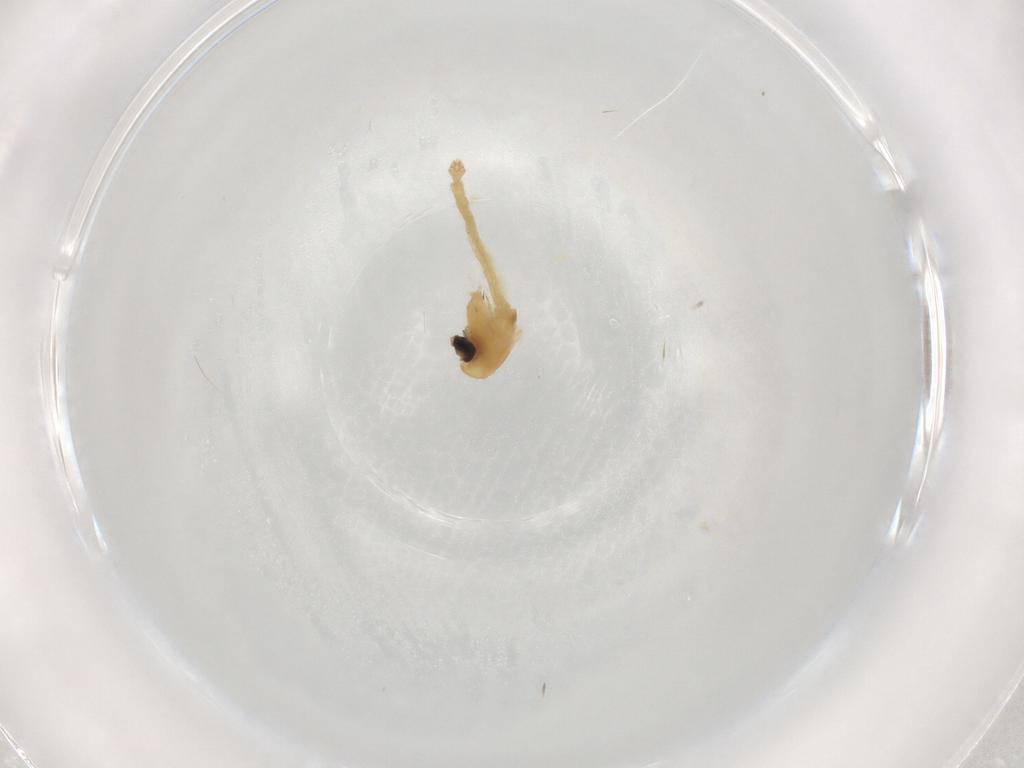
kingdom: Animalia
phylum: Arthropoda
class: Insecta
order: Diptera
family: Chironomidae
